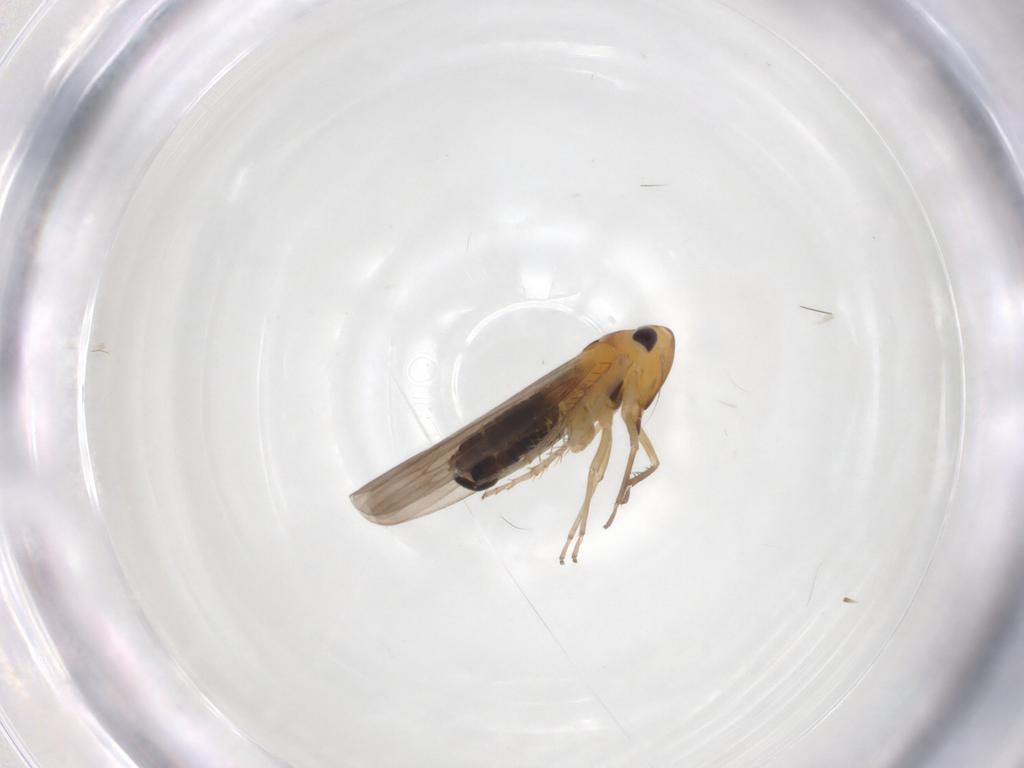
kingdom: Animalia
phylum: Arthropoda
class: Insecta
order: Hemiptera
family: Cicadellidae
